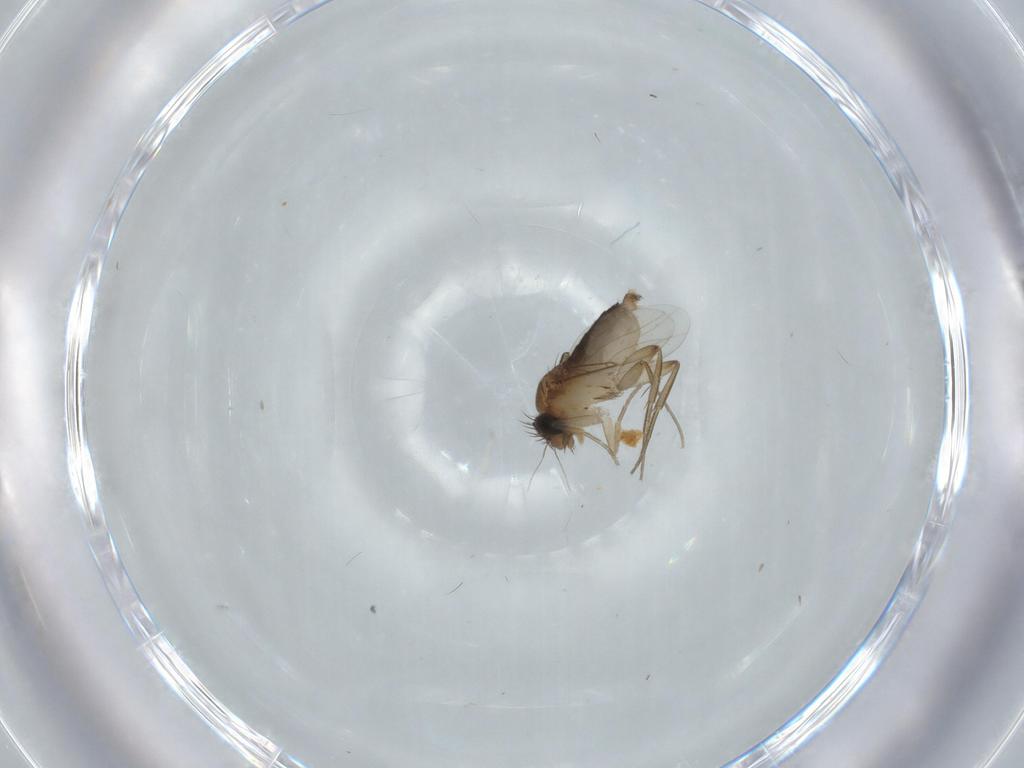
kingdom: Animalia
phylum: Arthropoda
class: Insecta
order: Diptera
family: Phoridae
